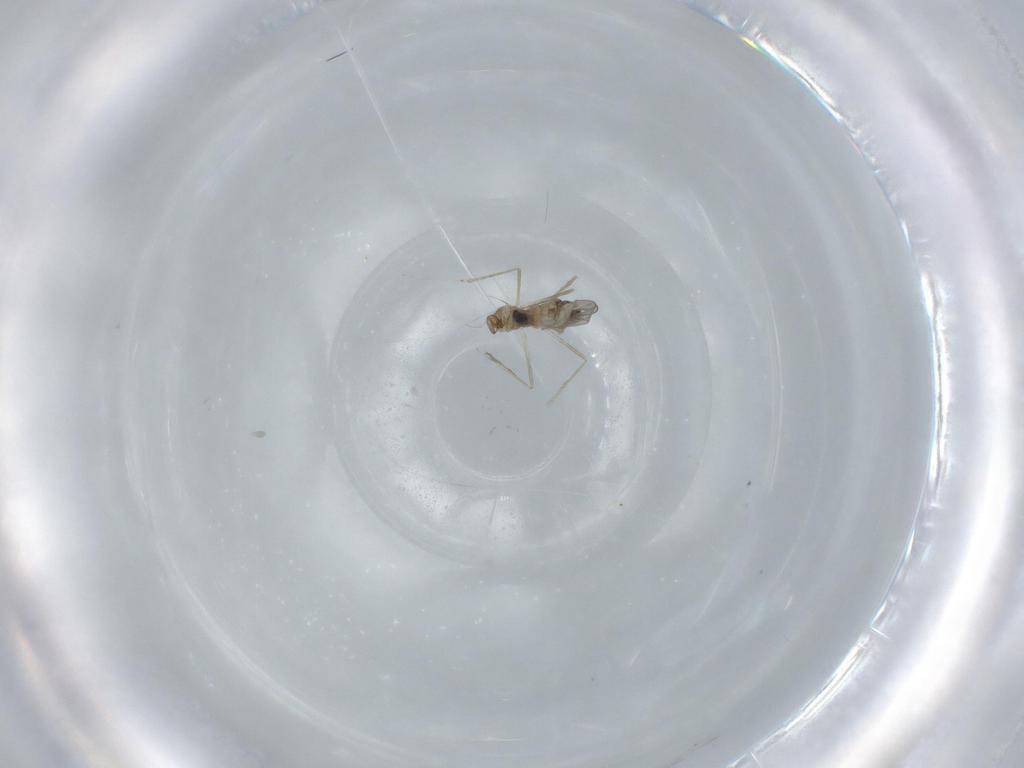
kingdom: Animalia
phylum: Arthropoda
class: Insecta
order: Diptera
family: Cecidomyiidae
